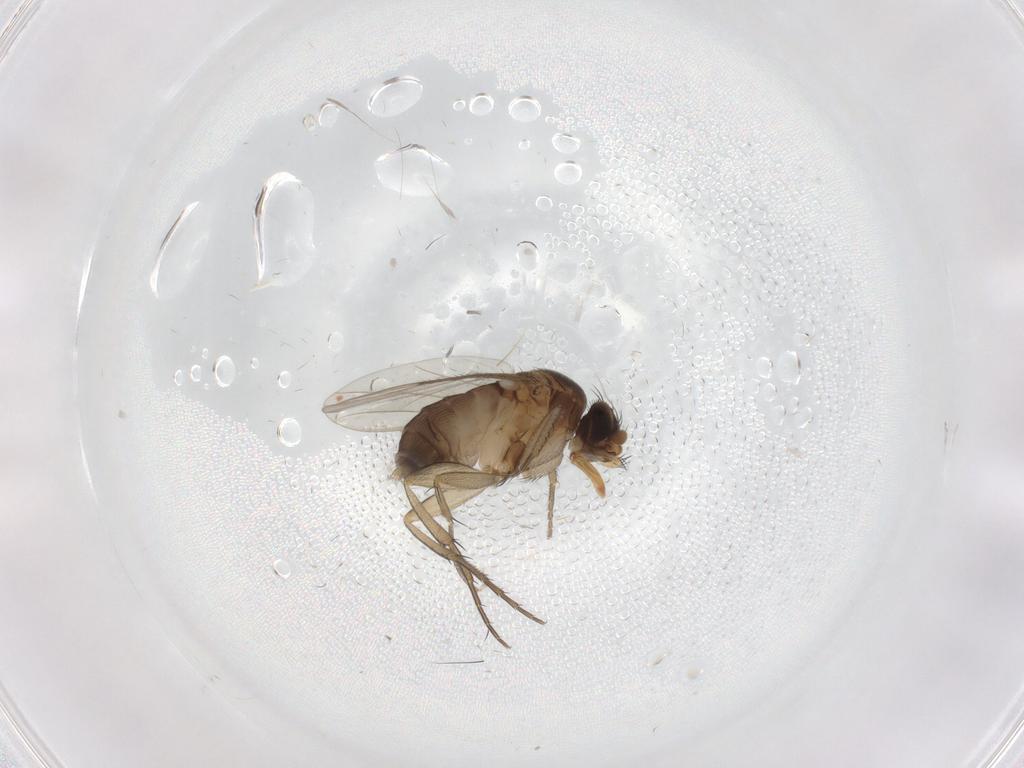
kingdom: Animalia
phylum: Arthropoda
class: Insecta
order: Diptera
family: Phoridae
